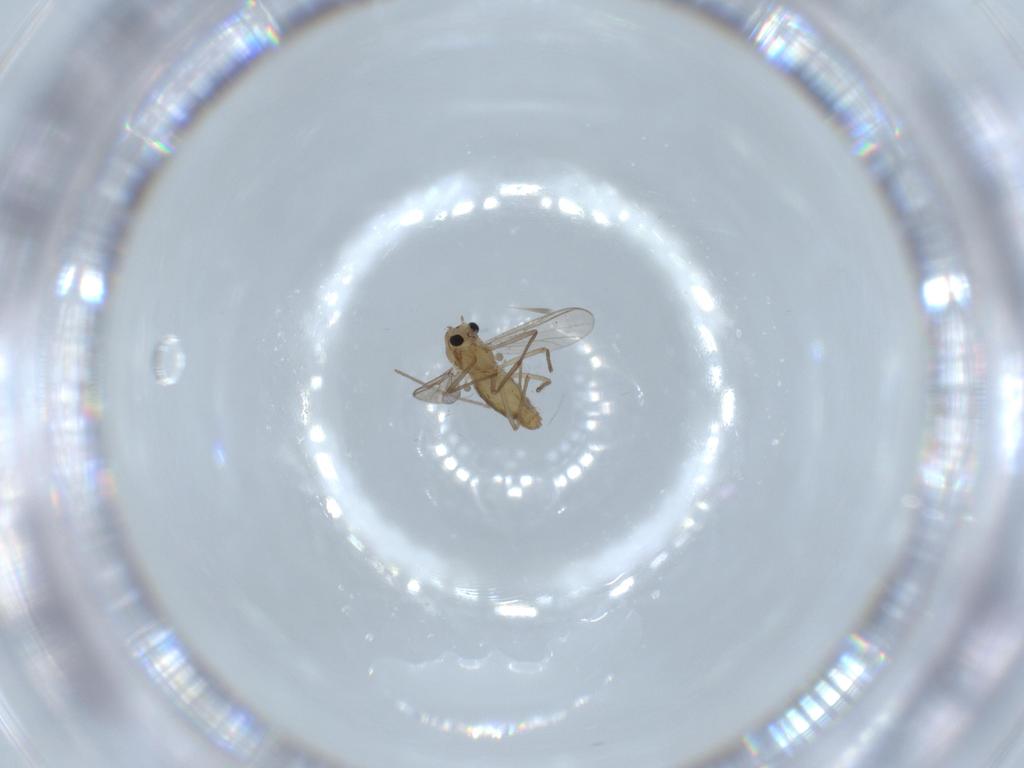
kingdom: Animalia
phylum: Arthropoda
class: Insecta
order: Diptera
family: Chironomidae
